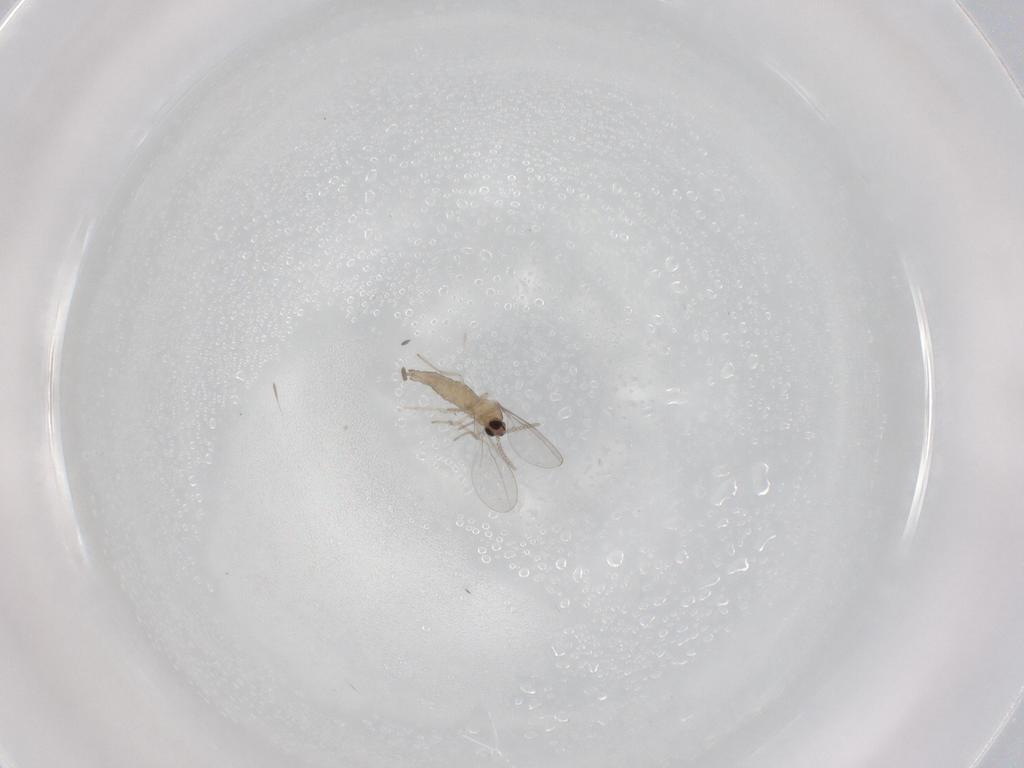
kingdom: Animalia
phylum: Arthropoda
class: Insecta
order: Diptera
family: Cecidomyiidae
